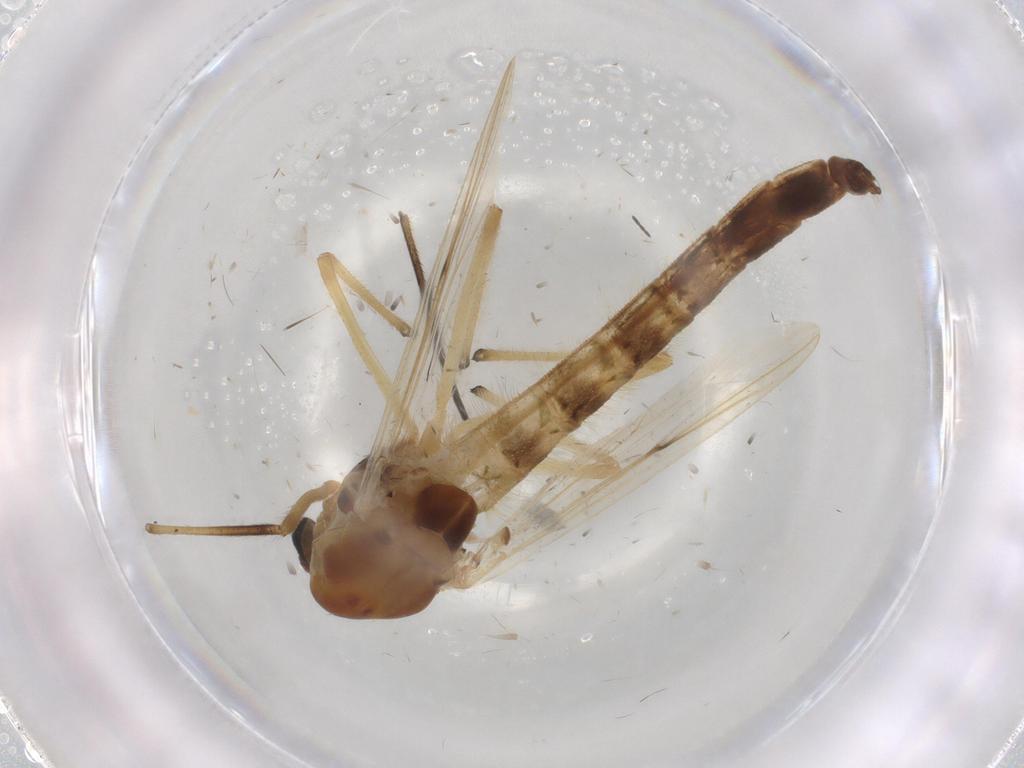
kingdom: Animalia
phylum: Arthropoda
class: Insecta
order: Diptera
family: Chironomidae
